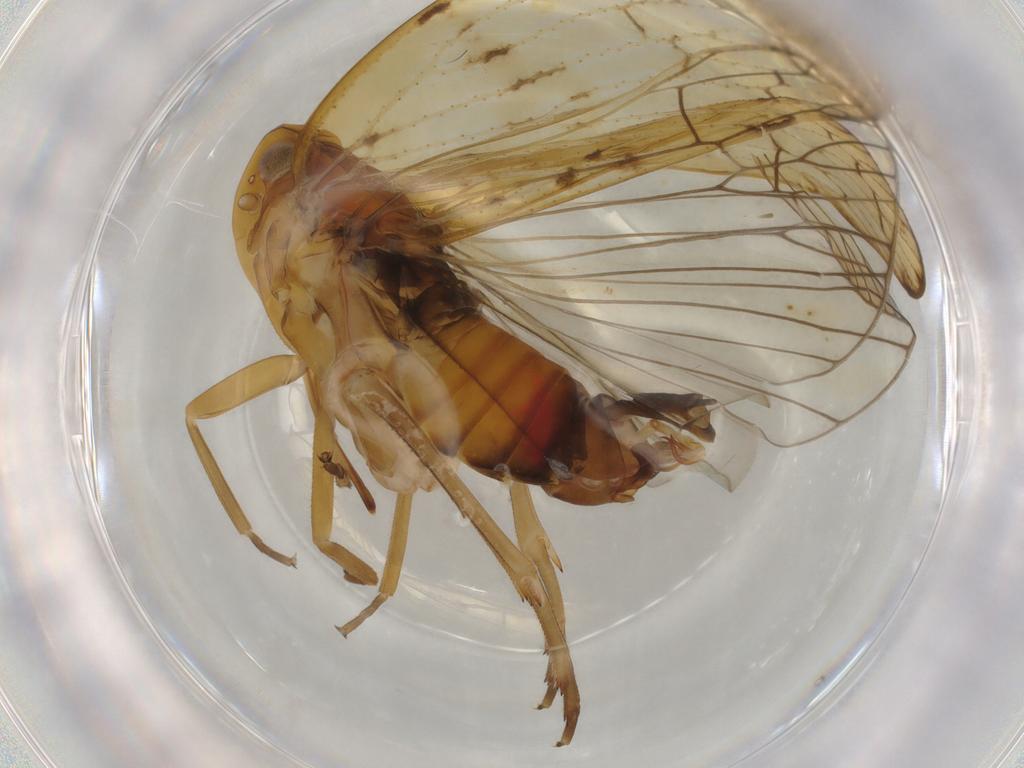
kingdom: Animalia
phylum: Arthropoda
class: Insecta
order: Hemiptera
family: Cixiidae
